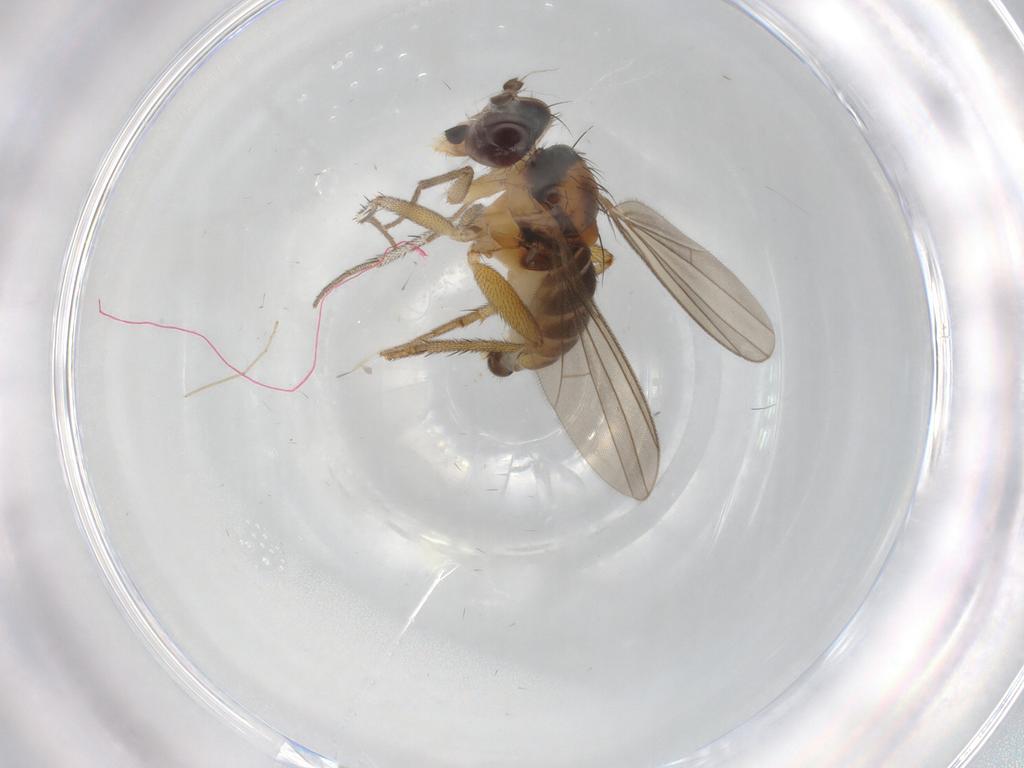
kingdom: Animalia
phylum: Arthropoda
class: Insecta
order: Diptera
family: Dolichopodidae
